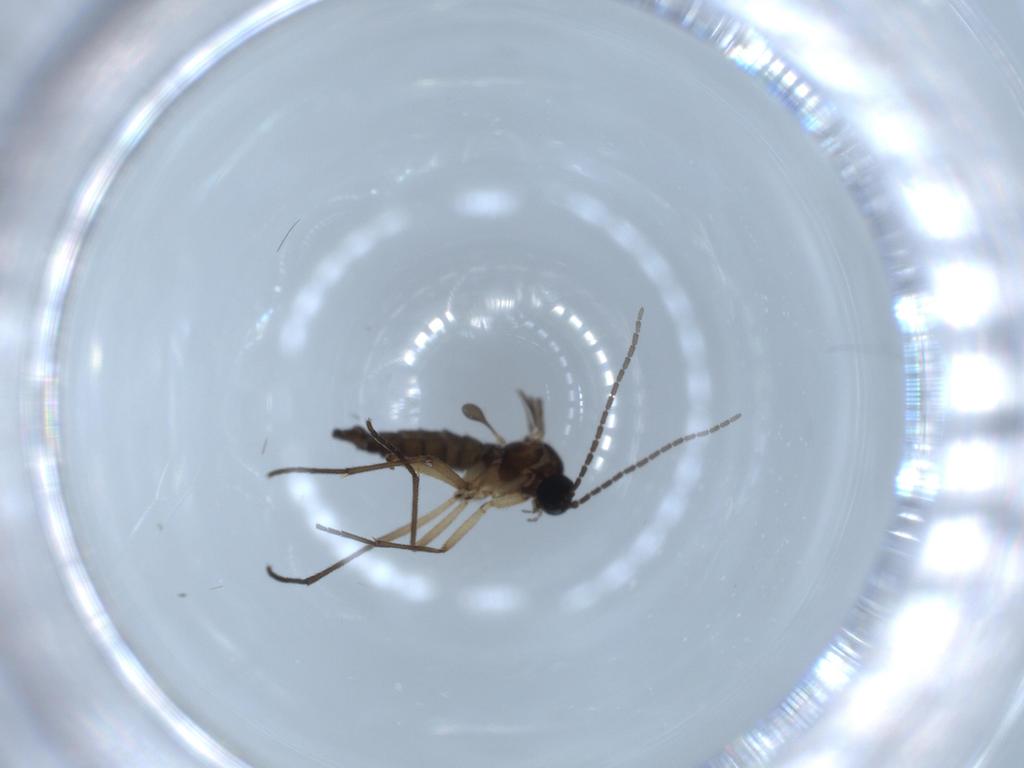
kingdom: Animalia
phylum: Arthropoda
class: Insecta
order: Diptera
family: Sciaridae
